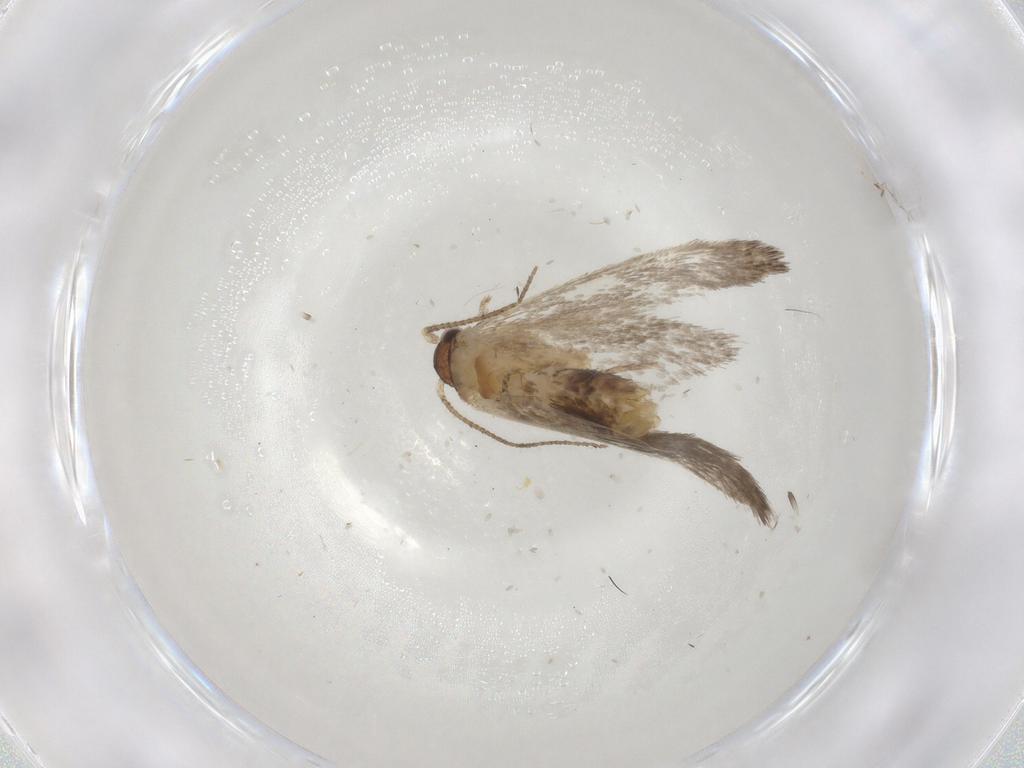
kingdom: Animalia
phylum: Arthropoda
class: Insecta
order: Lepidoptera
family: Dryadaulidae
